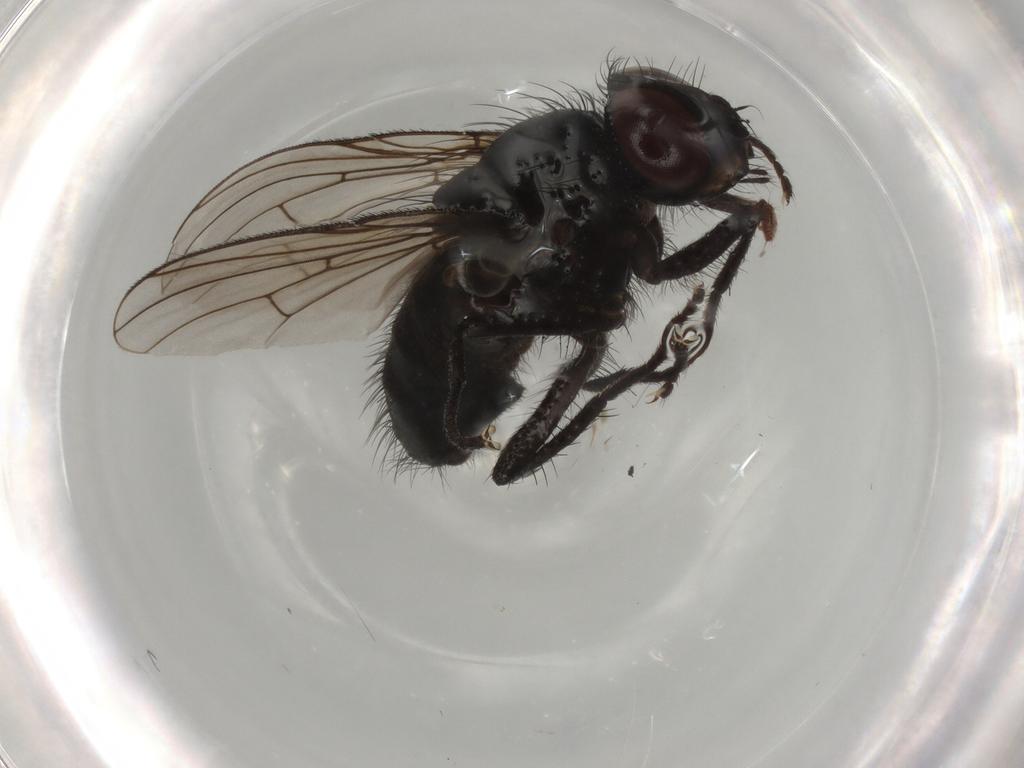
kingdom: Animalia
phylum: Arthropoda
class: Insecta
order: Diptera
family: Muscidae
